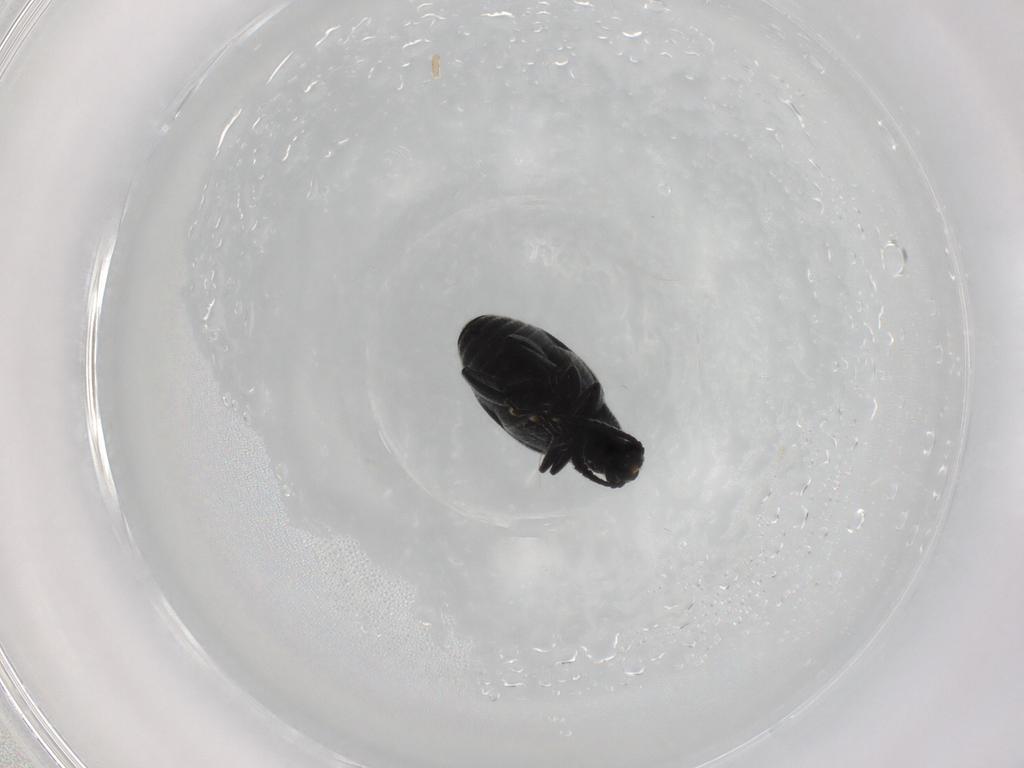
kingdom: Animalia
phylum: Arthropoda
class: Insecta
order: Coleoptera
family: Chrysomelidae
